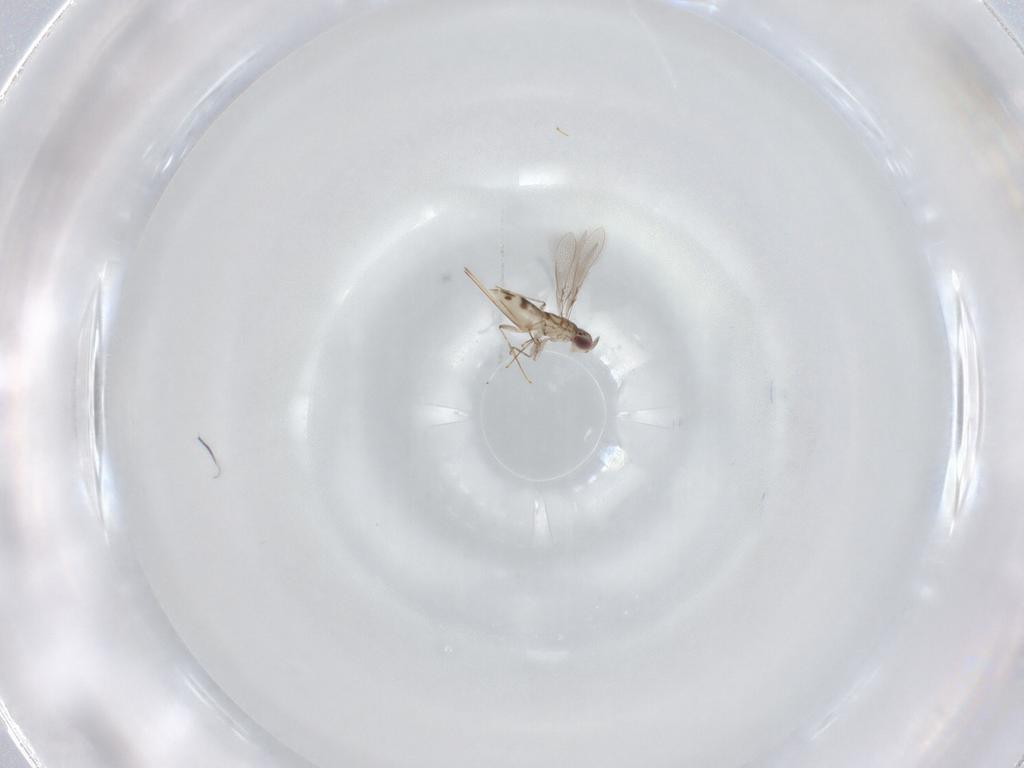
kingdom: Animalia
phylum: Arthropoda
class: Insecta
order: Hymenoptera
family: Mymaridae
